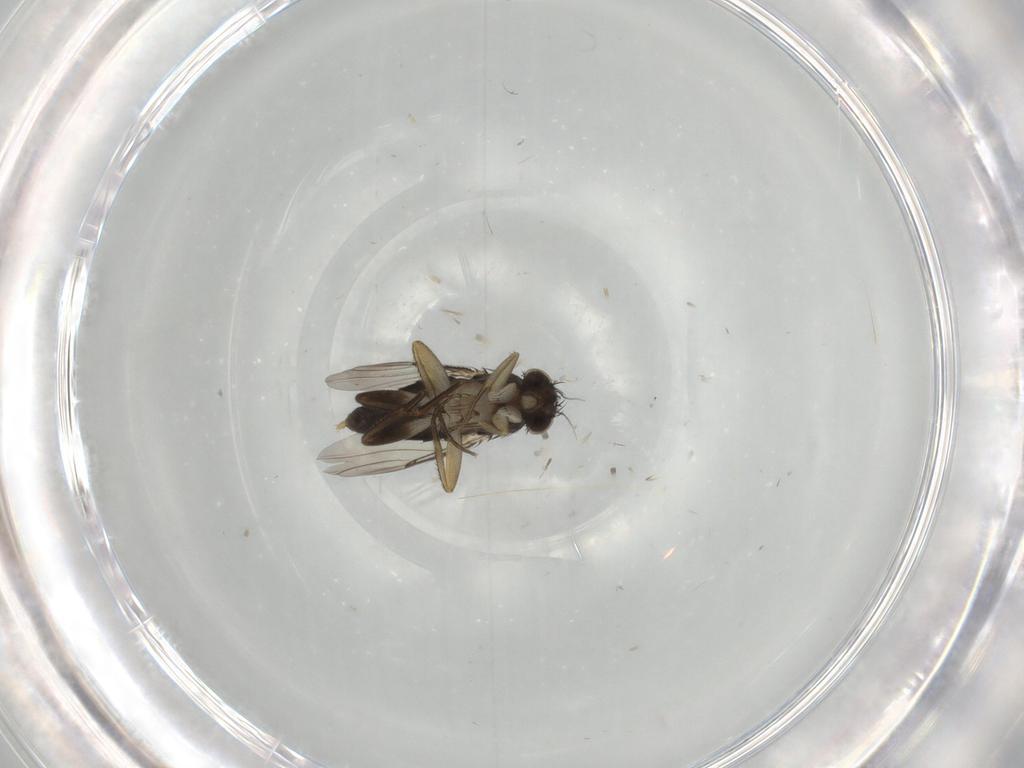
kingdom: Animalia
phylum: Arthropoda
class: Insecta
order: Diptera
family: Phoridae
